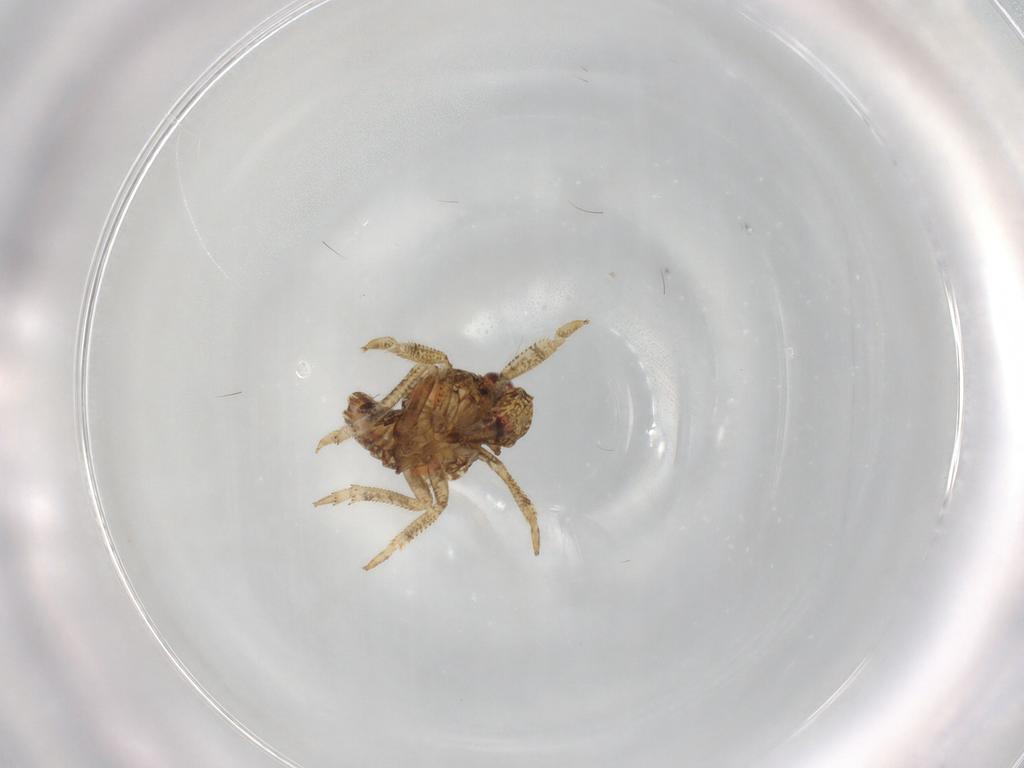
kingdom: Animalia
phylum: Arthropoda
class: Insecta
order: Hemiptera
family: Fulgoroidea_incertae_sedis
